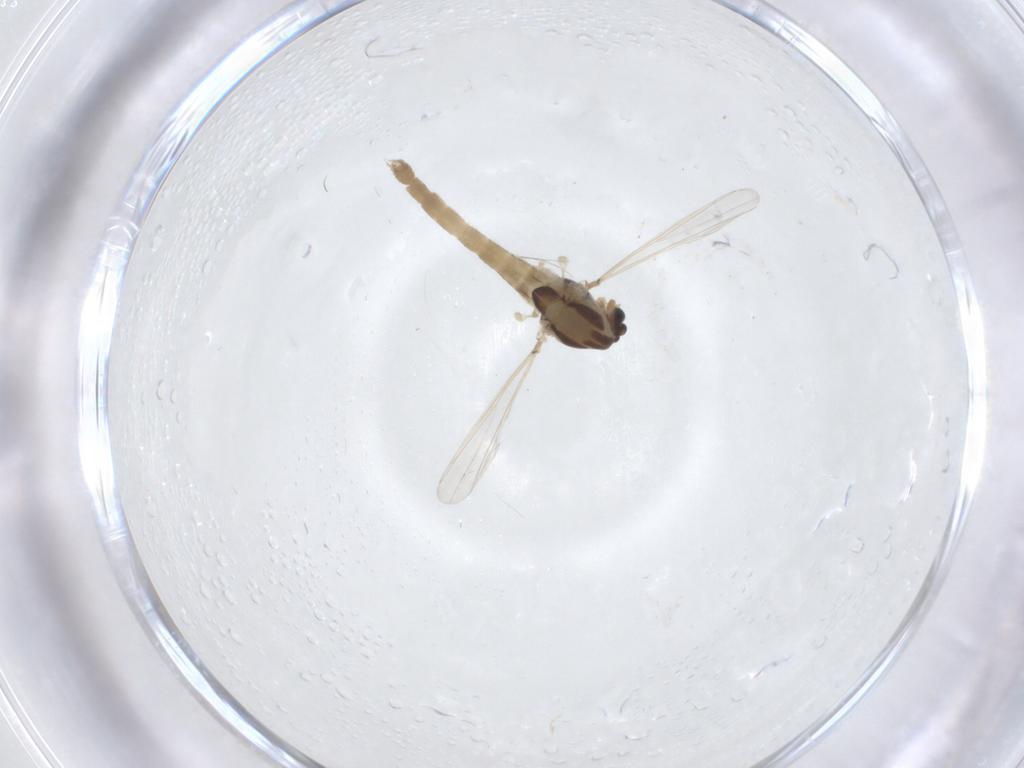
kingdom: Animalia
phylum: Arthropoda
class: Insecta
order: Diptera
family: Chironomidae
